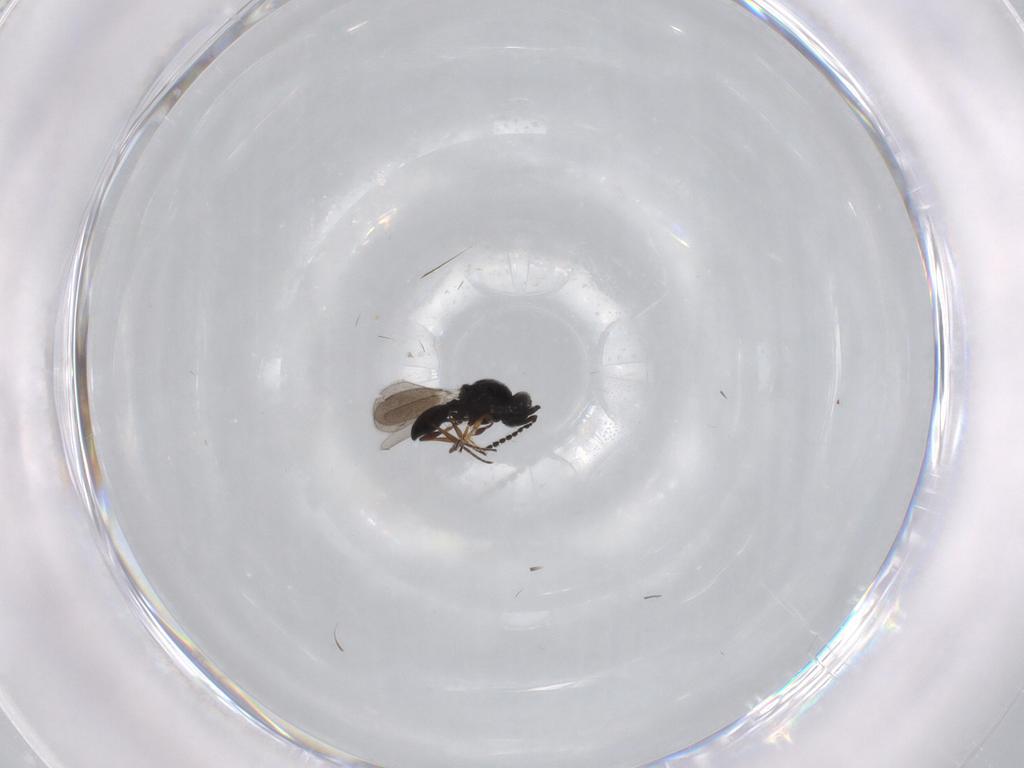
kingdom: Animalia
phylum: Arthropoda
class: Insecta
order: Hymenoptera
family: Platygastridae
